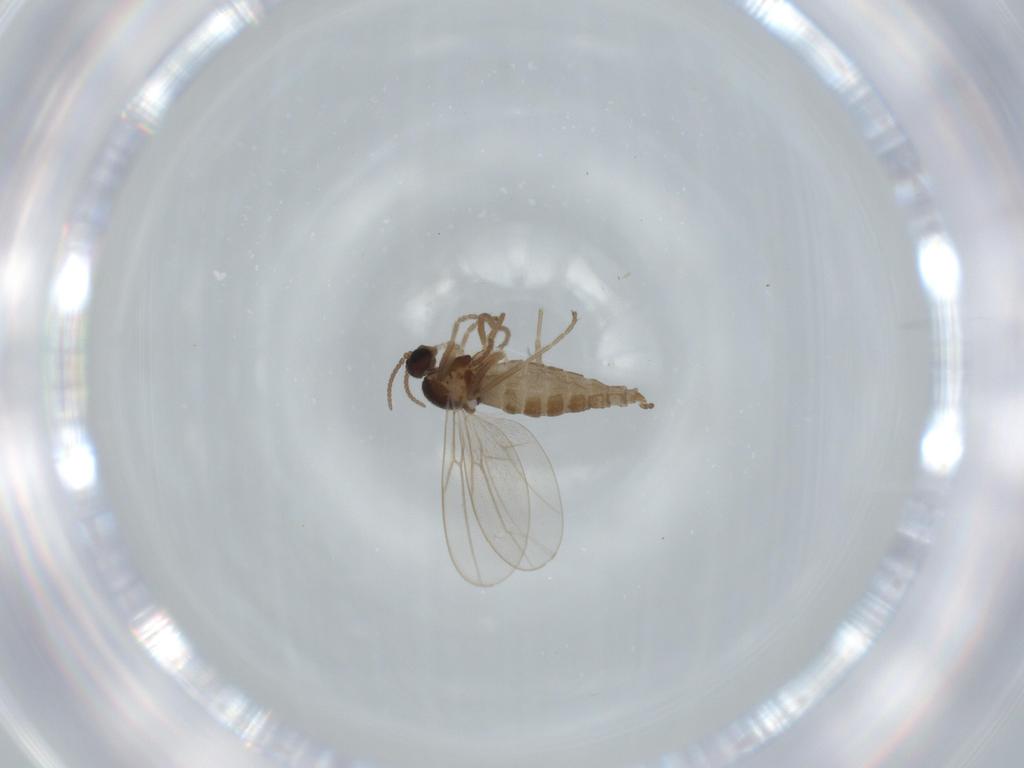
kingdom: Animalia
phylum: Arthropoda
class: Insecta
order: Diptera
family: Cecidomyiidae
